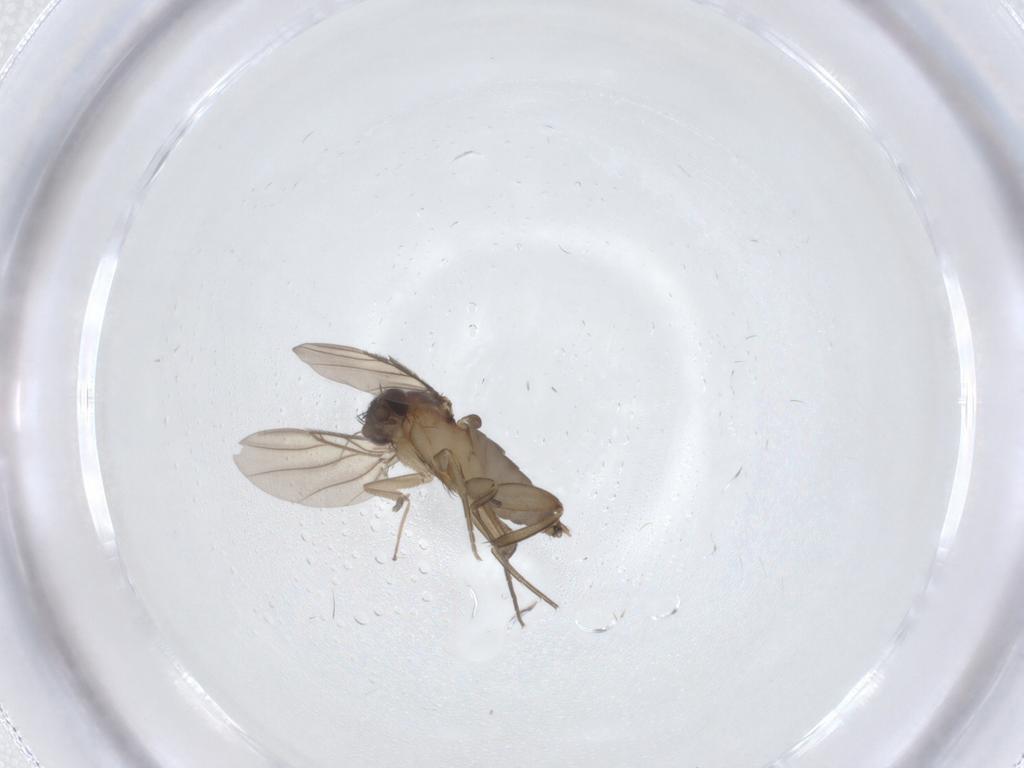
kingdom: Animalia
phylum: Arthropoda
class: Insecta
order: Diptera
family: Chironomidae
